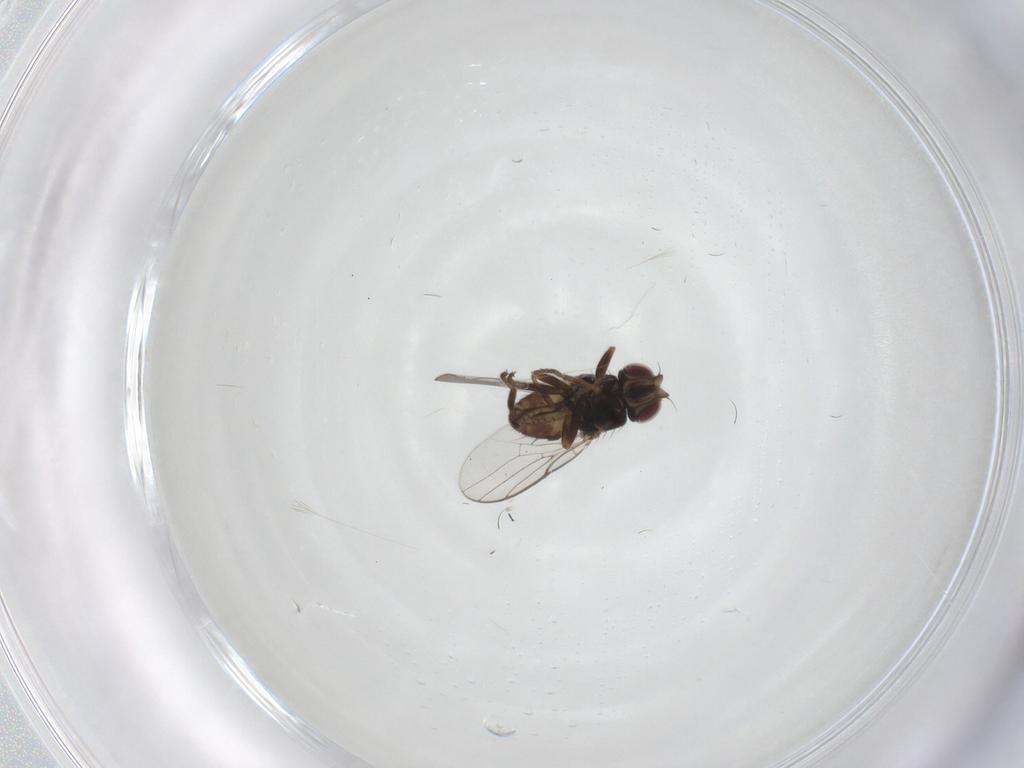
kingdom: Animalia
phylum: Arthropoda
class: Insecta
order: Diptera
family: Chloropidae
